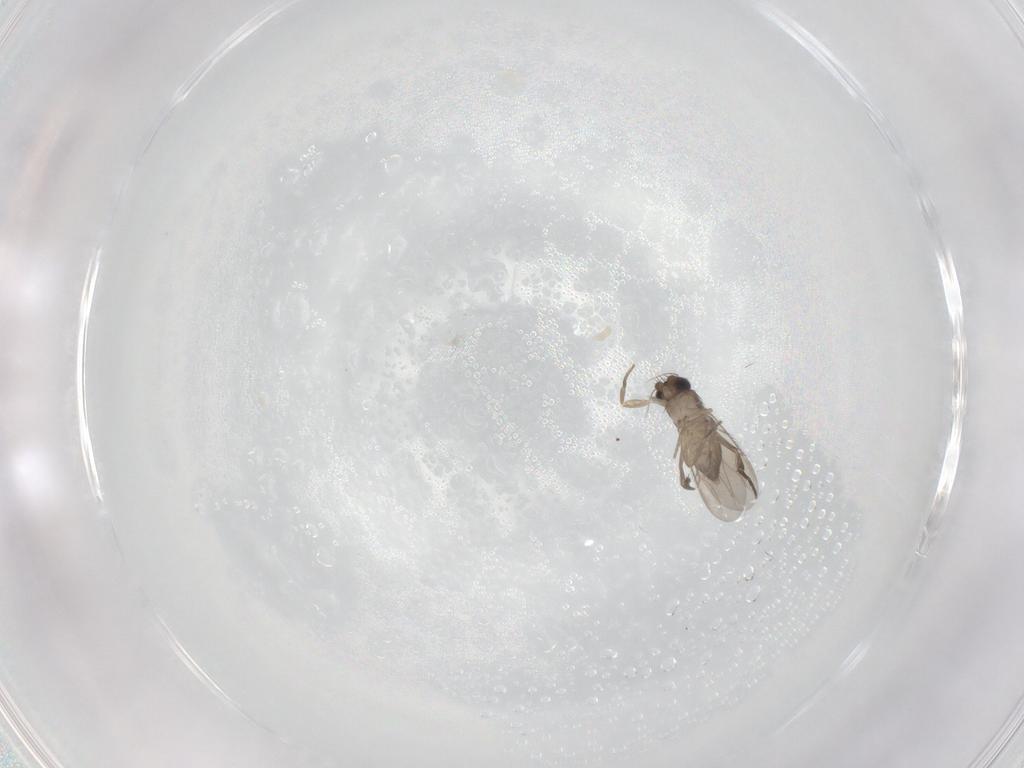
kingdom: Animalia
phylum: Arthropoda
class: Insecta
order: Diptera
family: Phoridae
